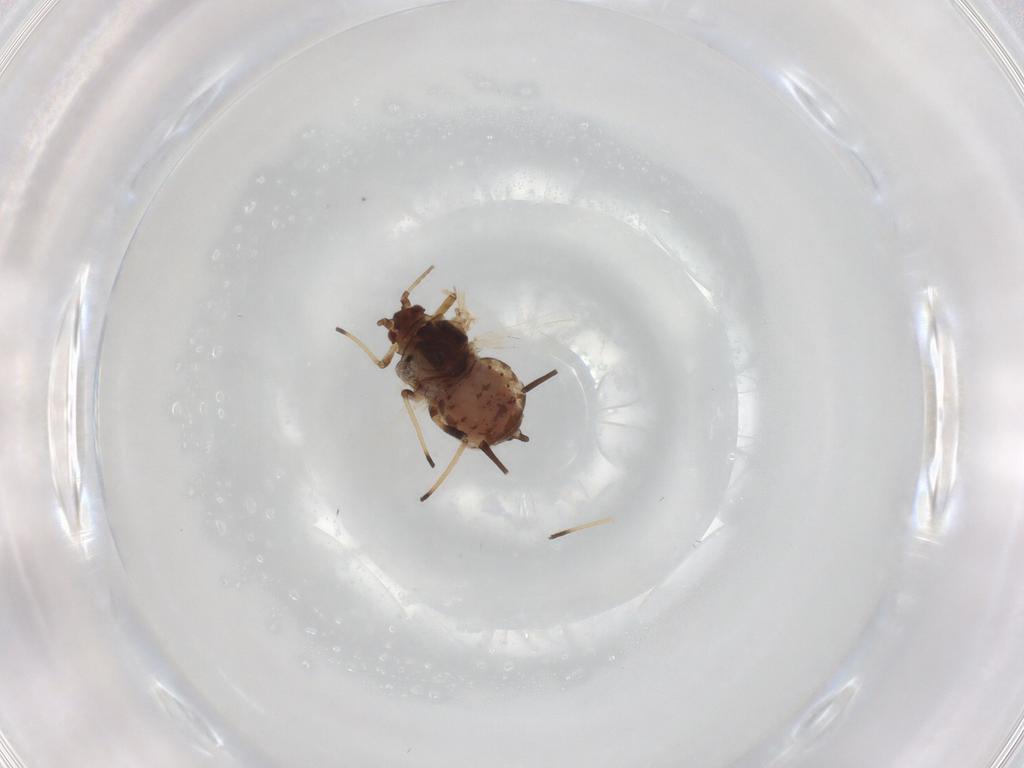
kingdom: Animalia
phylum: Arthropoda
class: Insecta
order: Hemiptera
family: Aphididae
